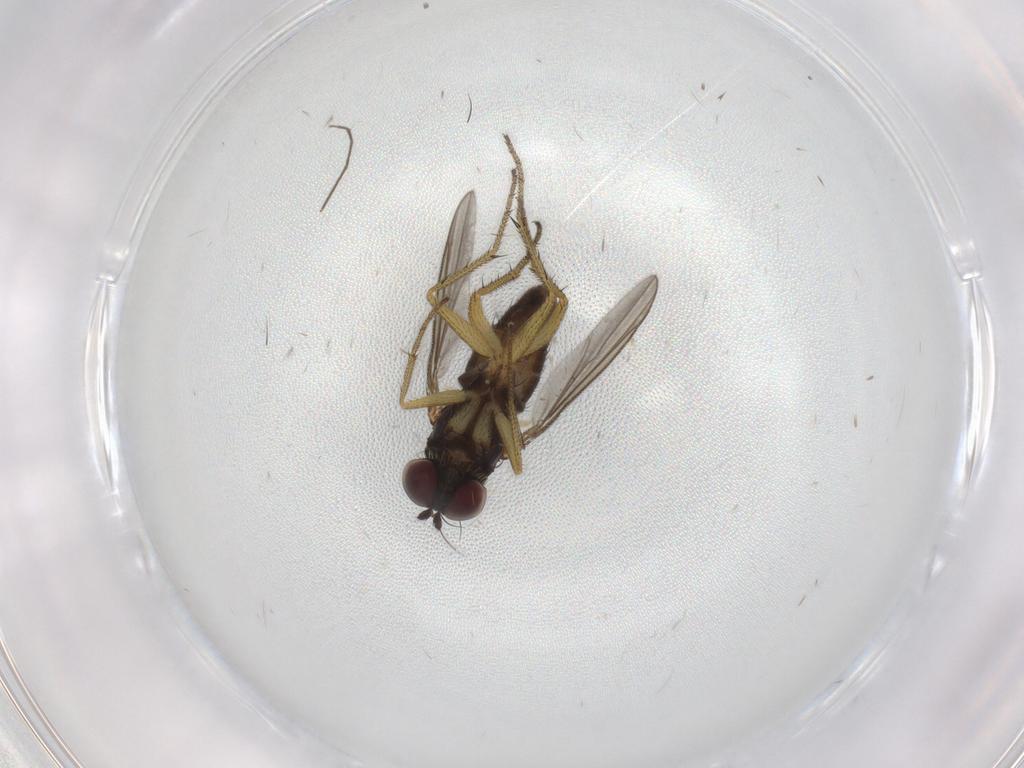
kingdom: Animalia
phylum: Arthropoda
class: Insecta
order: Diptera
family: Dolichopodidae
